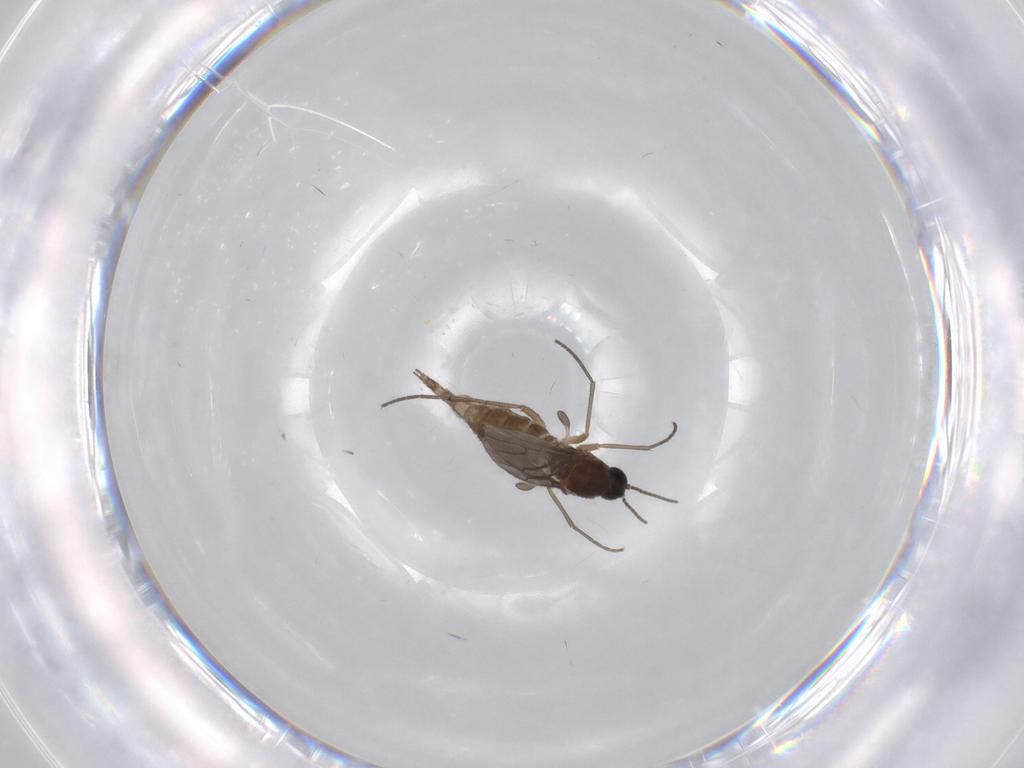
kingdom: Animalia
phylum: Arthropoda
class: Insecta
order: Diptera
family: Sciaridae
